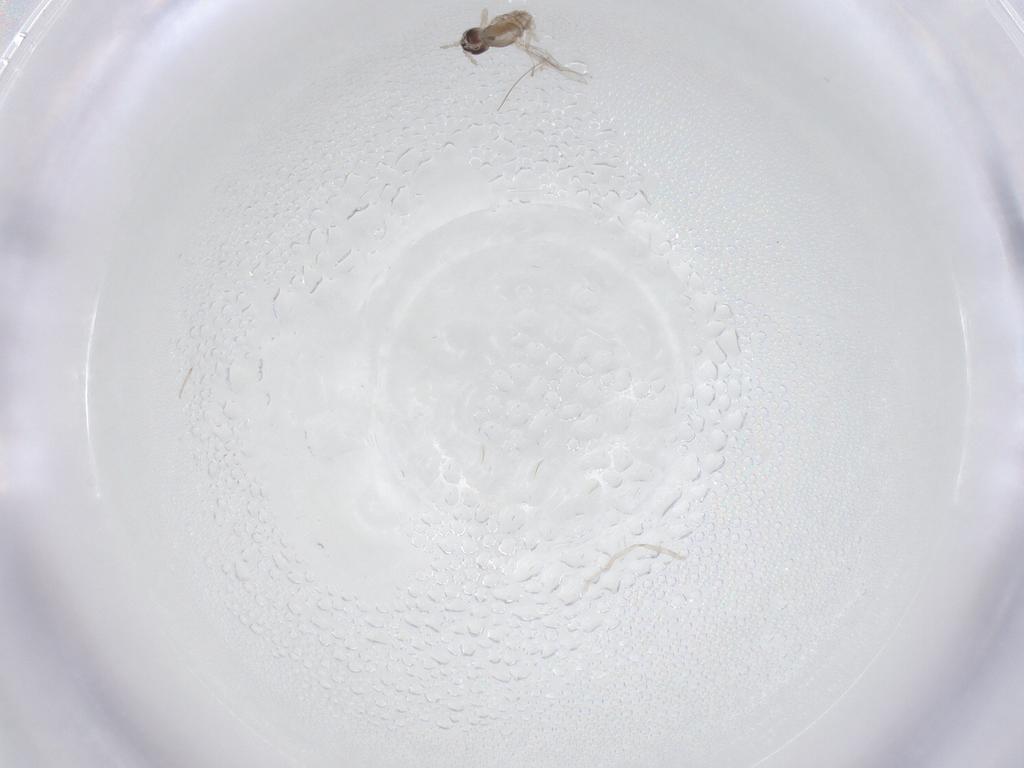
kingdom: Animalia
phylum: Arthropoda
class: Insecta
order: Diptera
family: Cecidomyiidae
